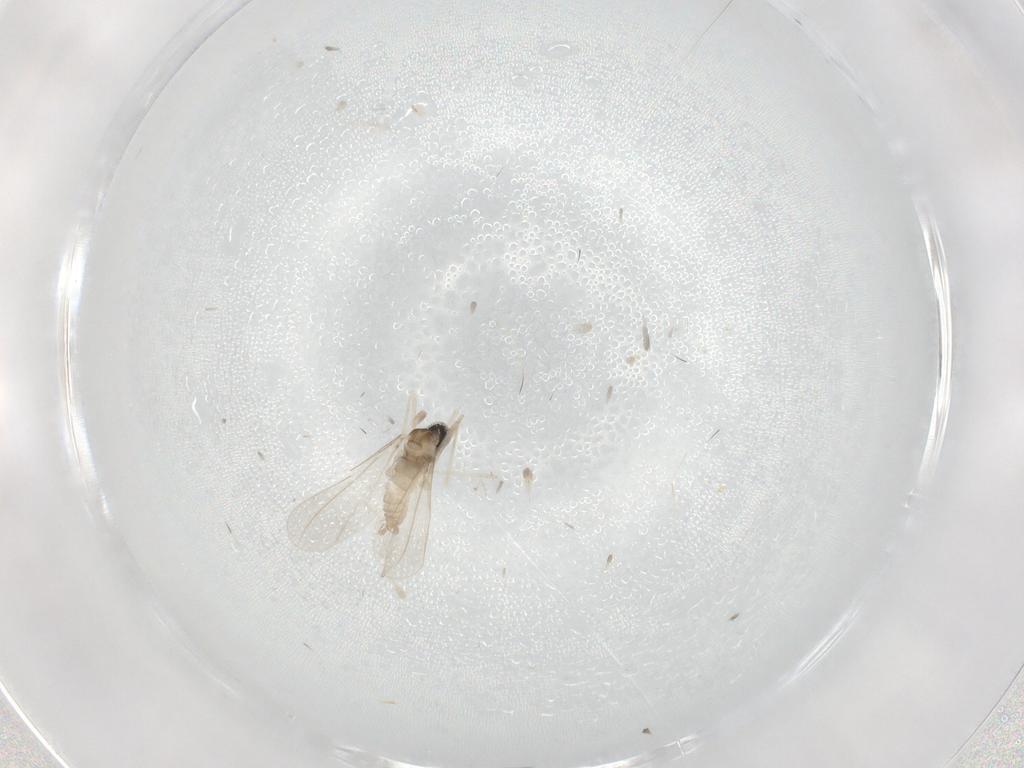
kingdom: Animalia
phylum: Arthropoda
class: Insecta
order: Diptera
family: Cecidomyiidae
